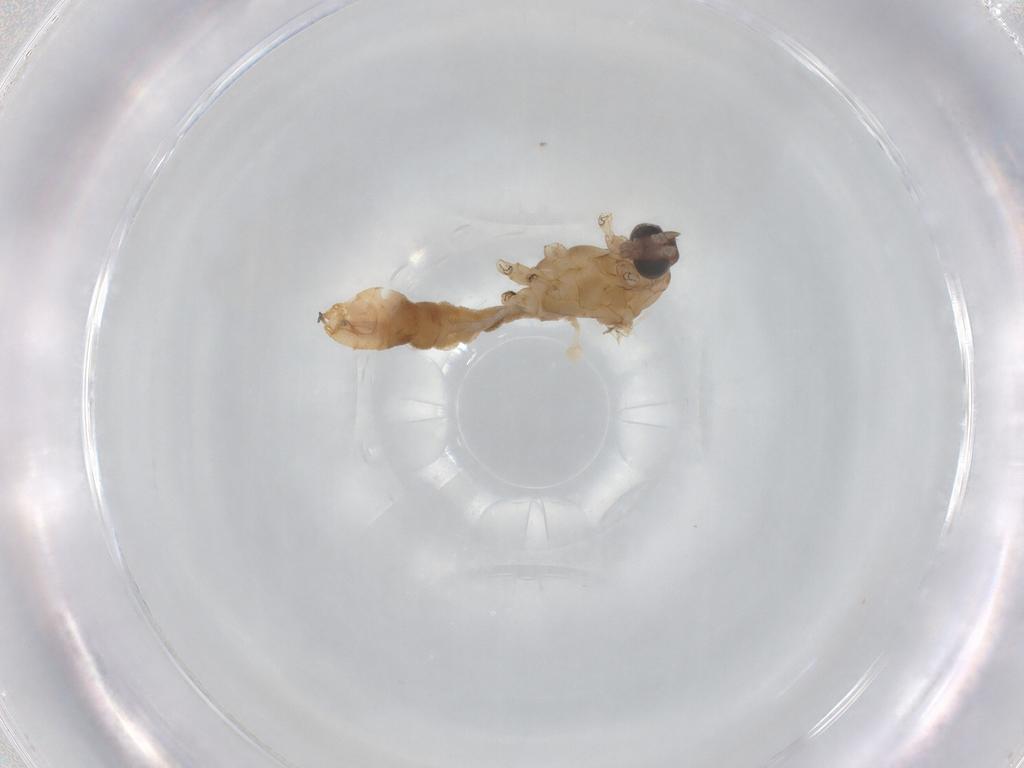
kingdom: Animalia
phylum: Arthropoda
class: Insecta
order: Diptera
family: Limoniidae
